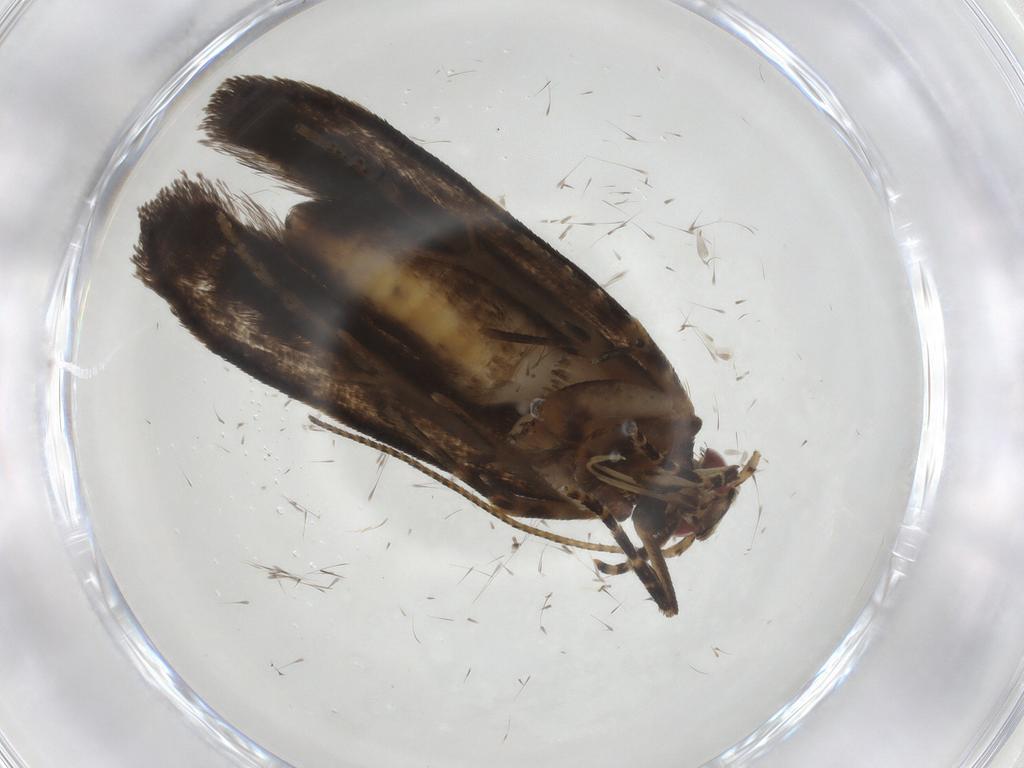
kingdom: Animalia
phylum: Arthropoda
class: Insecta
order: Lepidoptera
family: Gelechiidae
